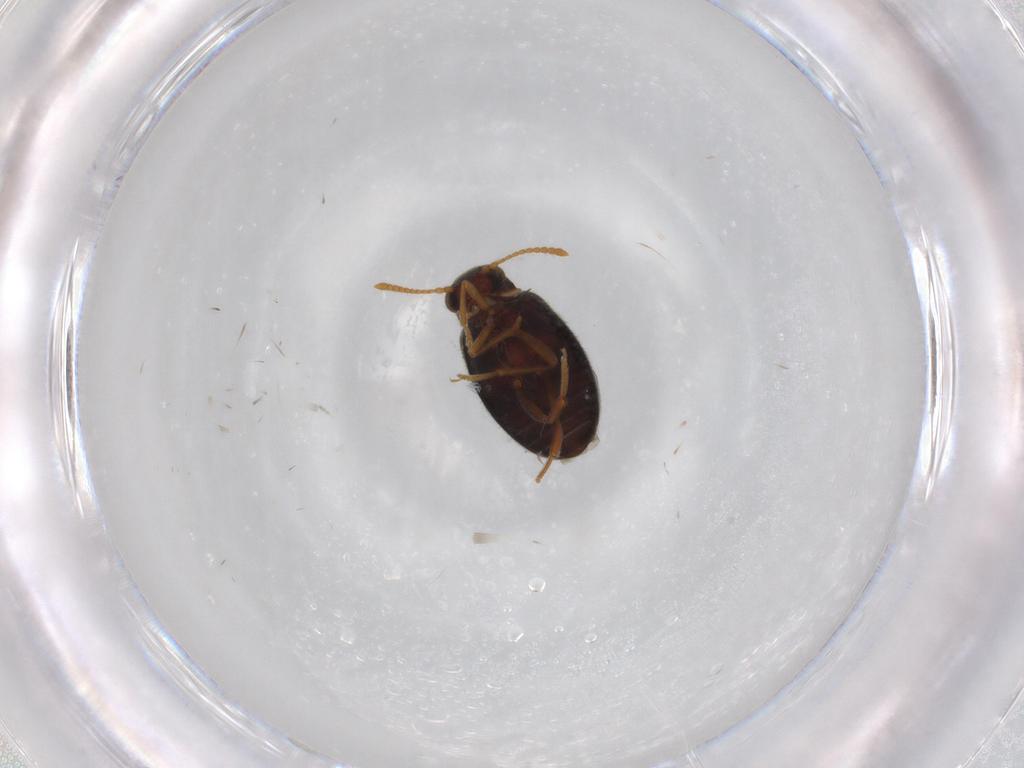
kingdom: Animalia
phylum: Arthropoda
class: Insecta
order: Coleoptera
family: Aderidae
